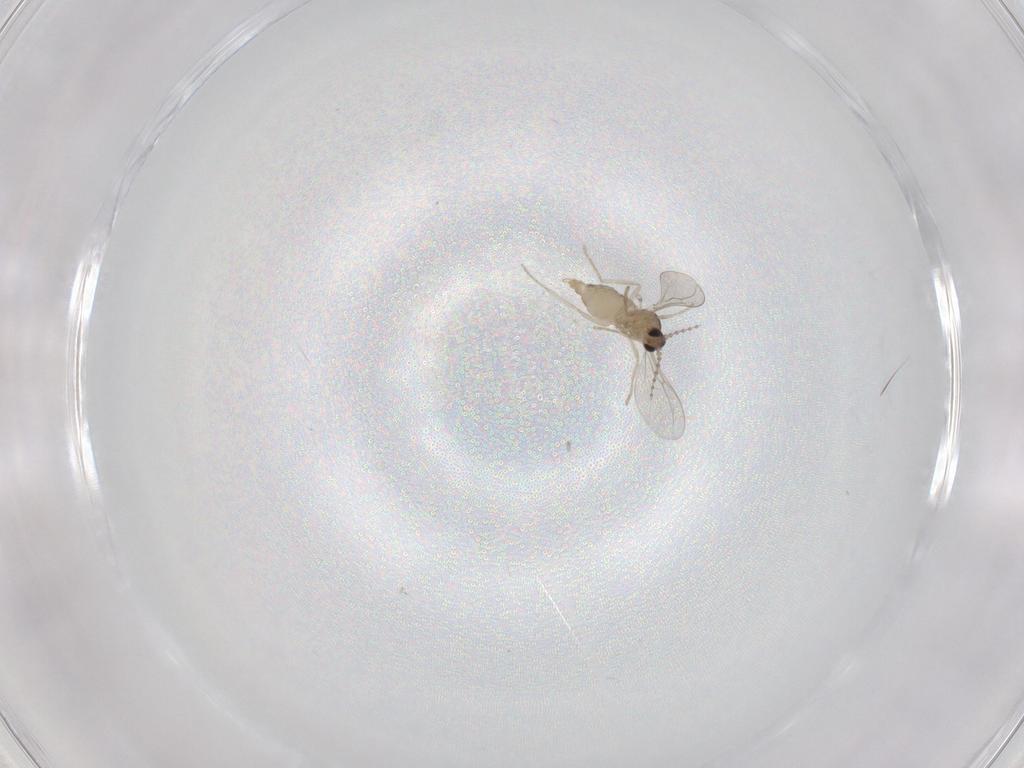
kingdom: Animalia
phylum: Arthropoda
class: Insecta
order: Diptera
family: Cecidomyiidae
